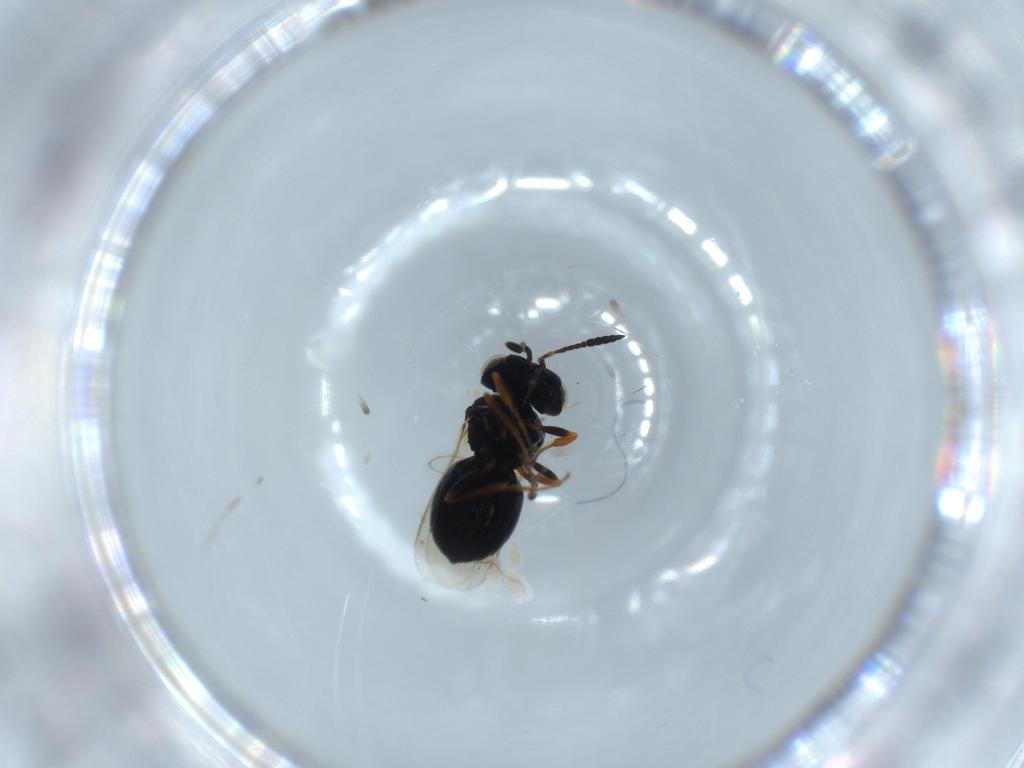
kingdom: Animalia
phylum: Arthropoda
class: Insecta
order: Hymenoptera
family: Scelionidae
